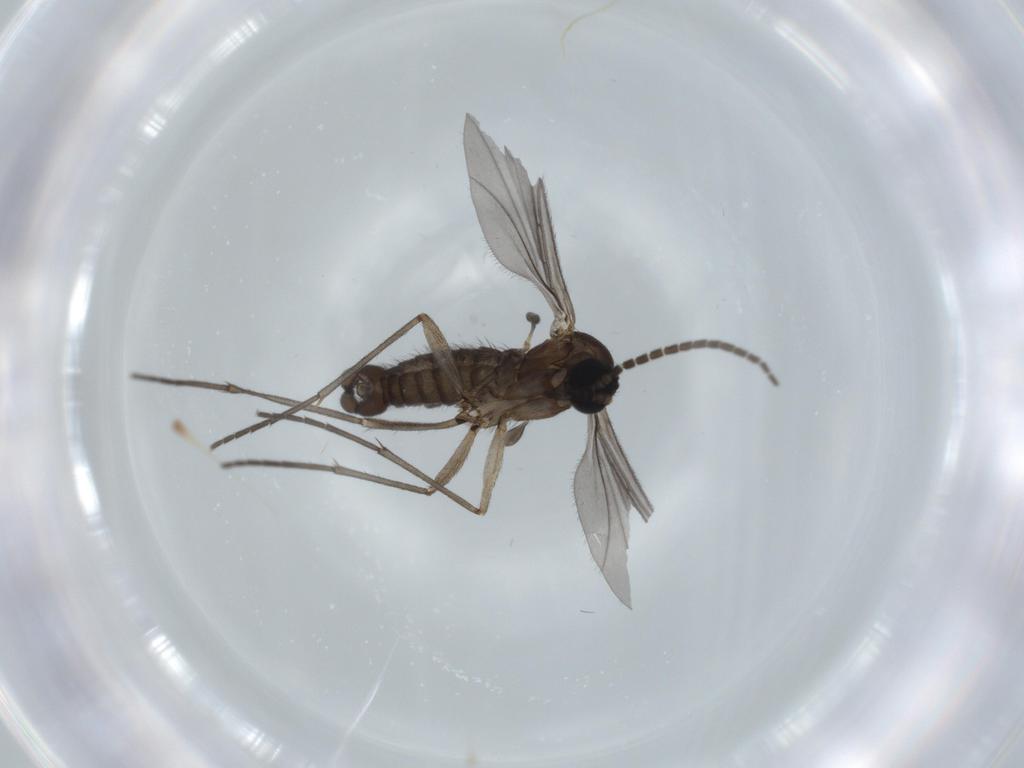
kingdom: Animalia
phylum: Arthropoda
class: Insecta
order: Diptera
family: Sciaridae
